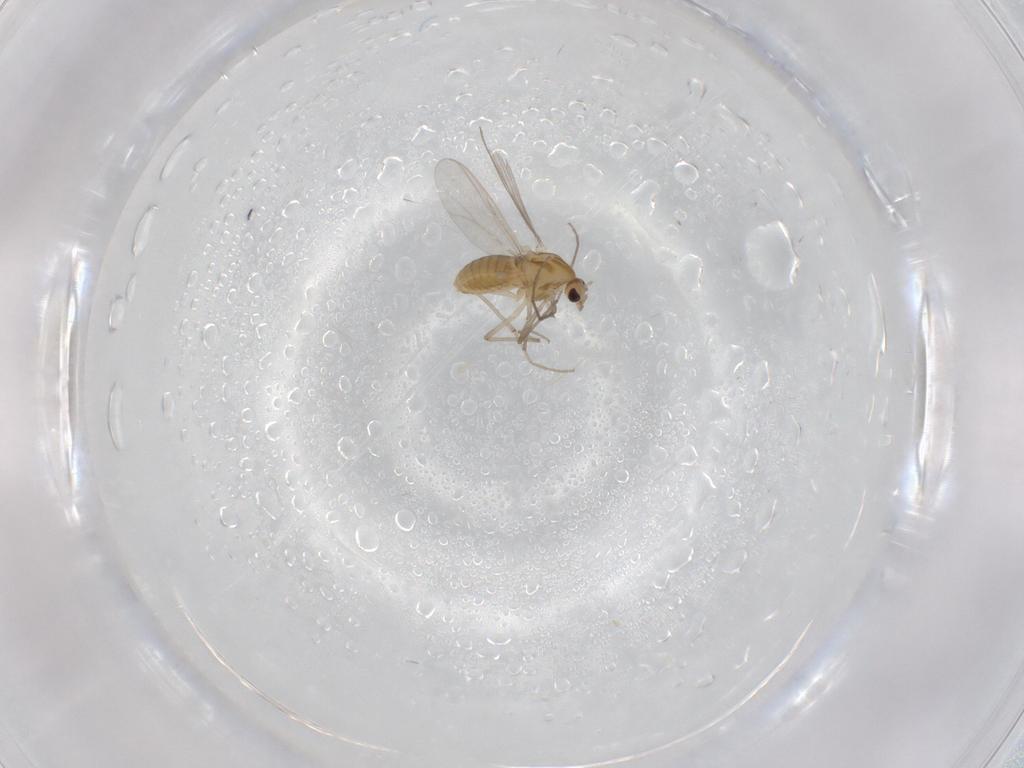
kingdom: Animalia
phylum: Arthropoda
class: Insecta
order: Diptera
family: Chironomidae
